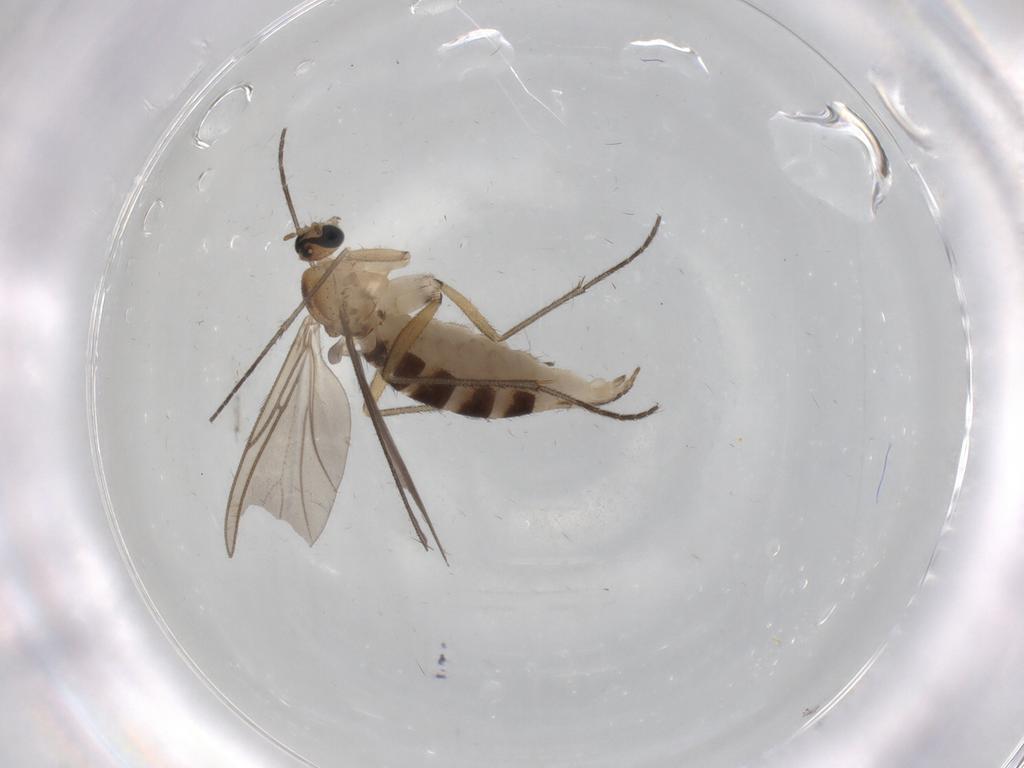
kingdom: Animalia
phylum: Arthropoda
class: Insecta
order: Diptera
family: Sciaridae
